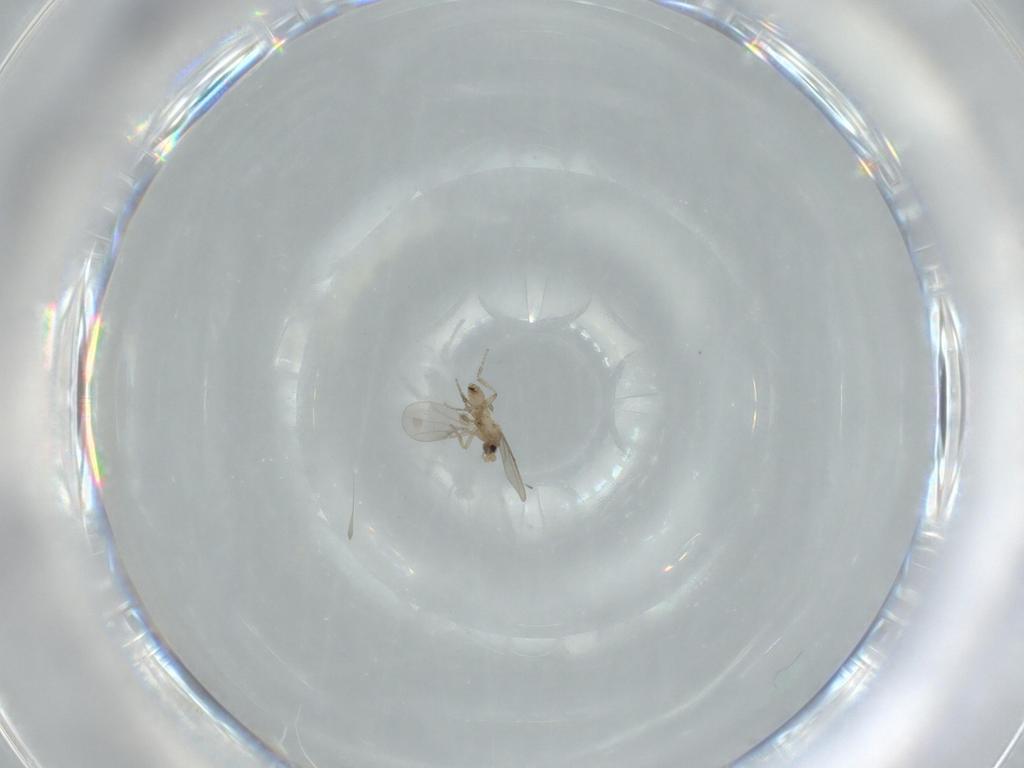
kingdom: Animalia
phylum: Arthropoda
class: Insecta
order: Diptera
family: Phoridae
